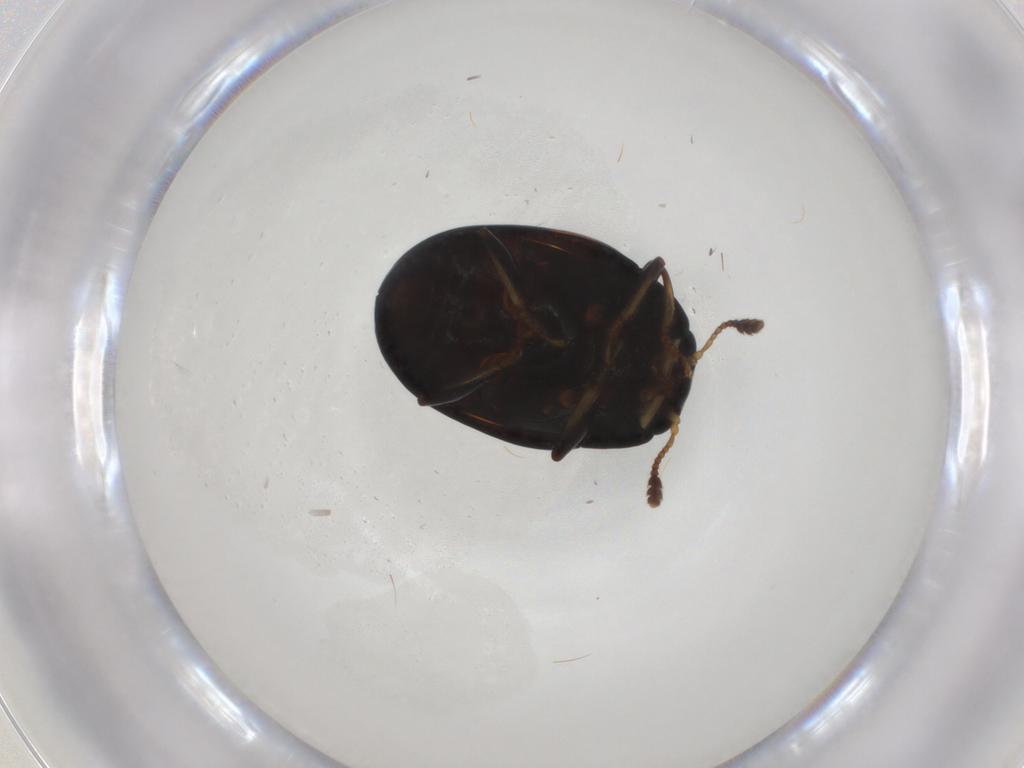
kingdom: Animalia
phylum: Arthropoda
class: Insecta
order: Coleoptera
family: Erotylidae
